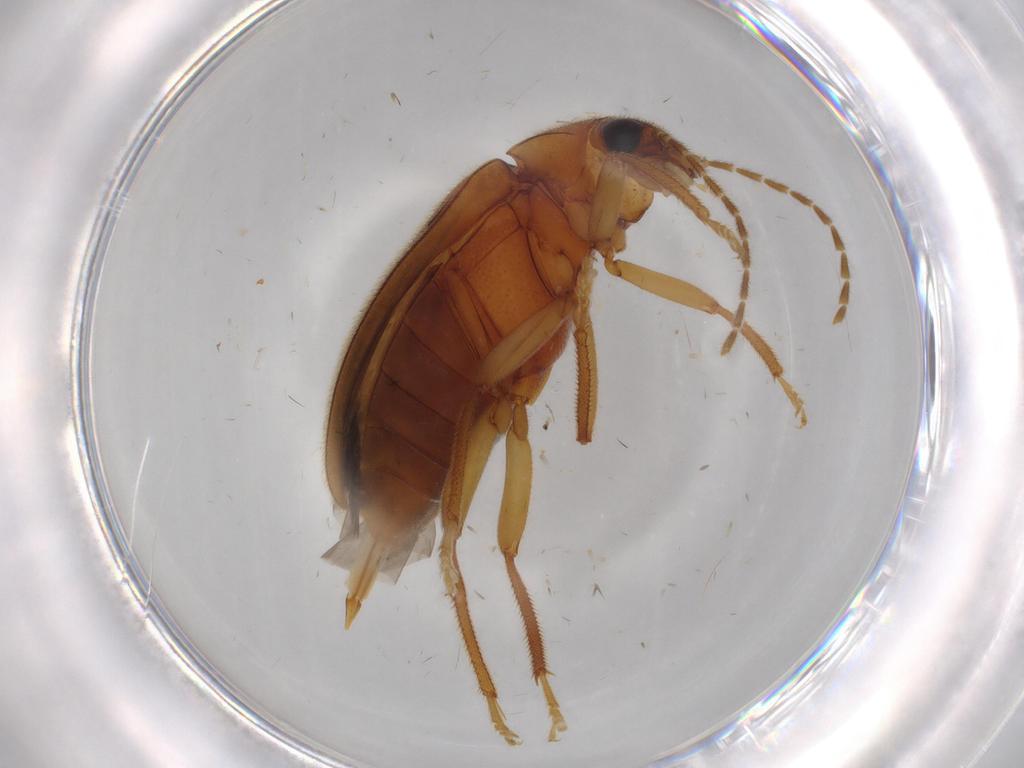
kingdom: Animalia
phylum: Arthropoda
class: Insecta
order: Coleoptera
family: Ptilodactylidae
